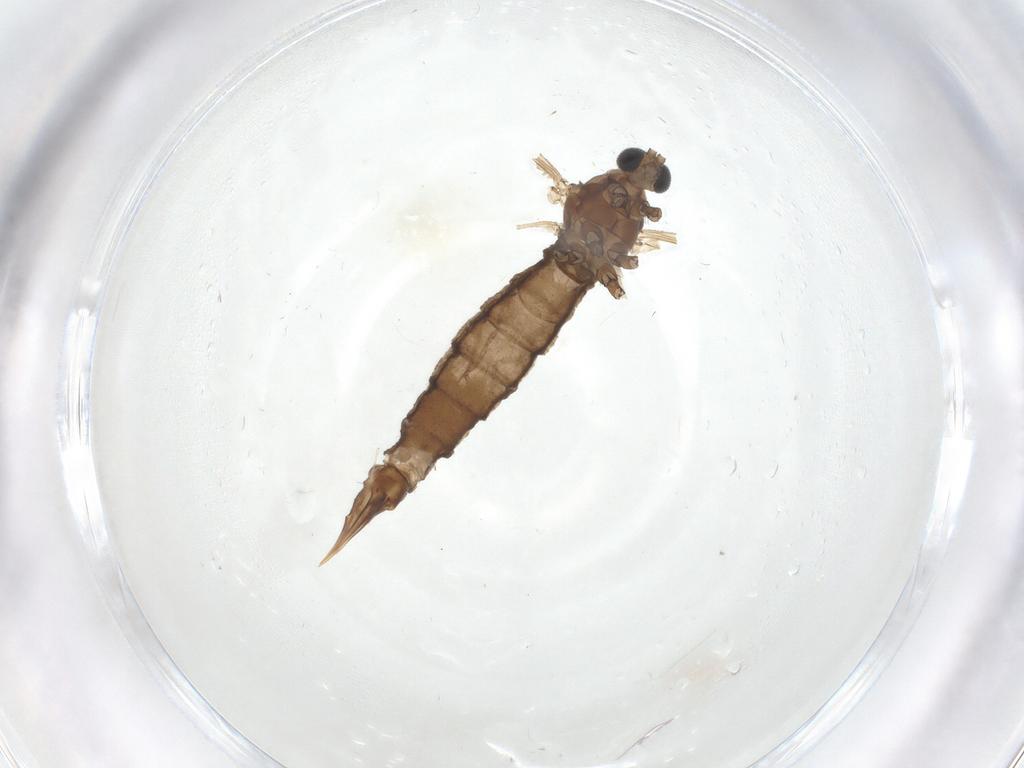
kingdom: Animalia
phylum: Arthropoda
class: Insecta
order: Diptera
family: Limoniidae
